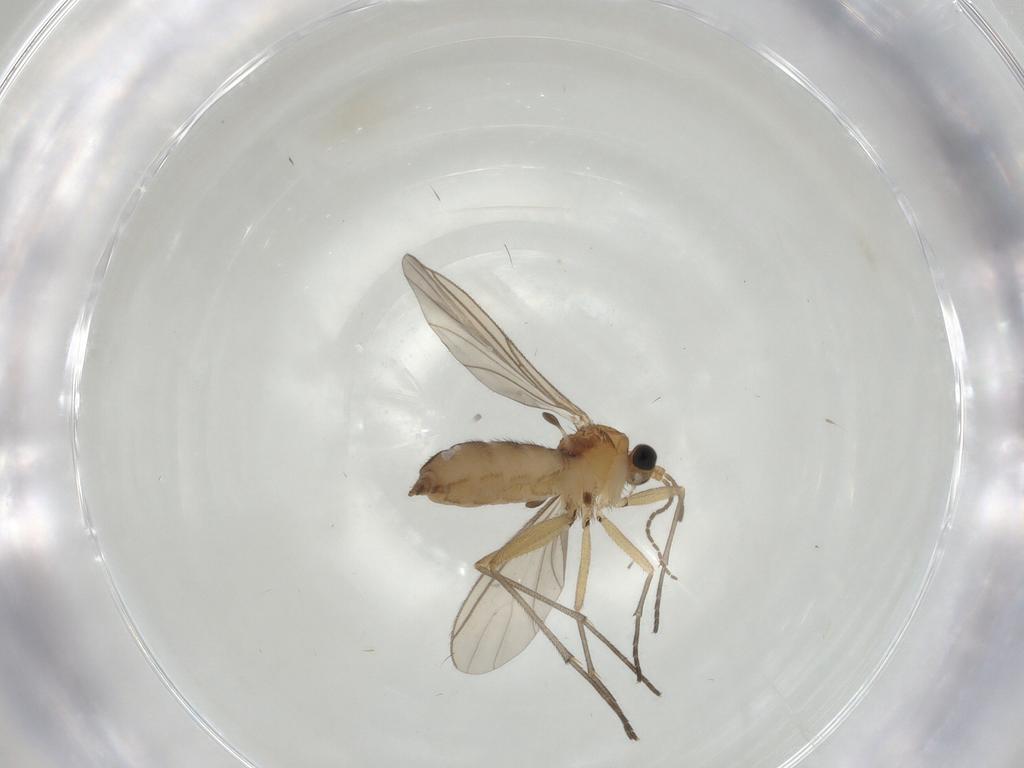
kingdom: Animalia
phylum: Arthropoda
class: Insecta
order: Diptera
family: Sciaridae
